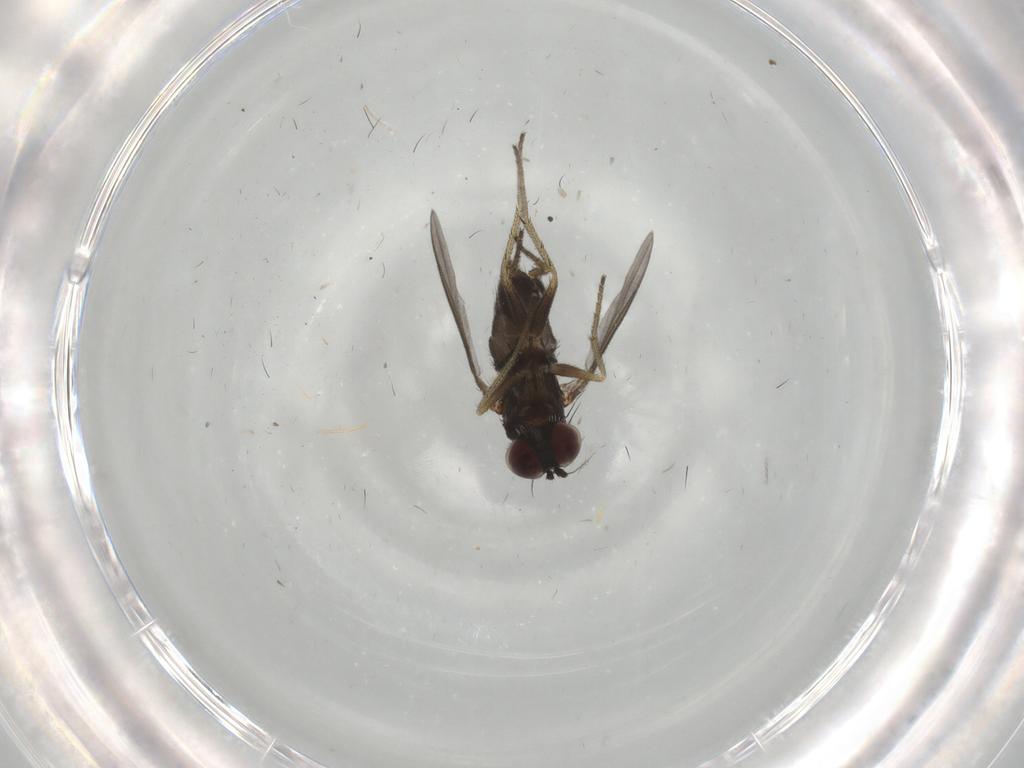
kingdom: Animalia
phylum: Arthropoda
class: Insecta
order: Diptera
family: Dolichopodidae
